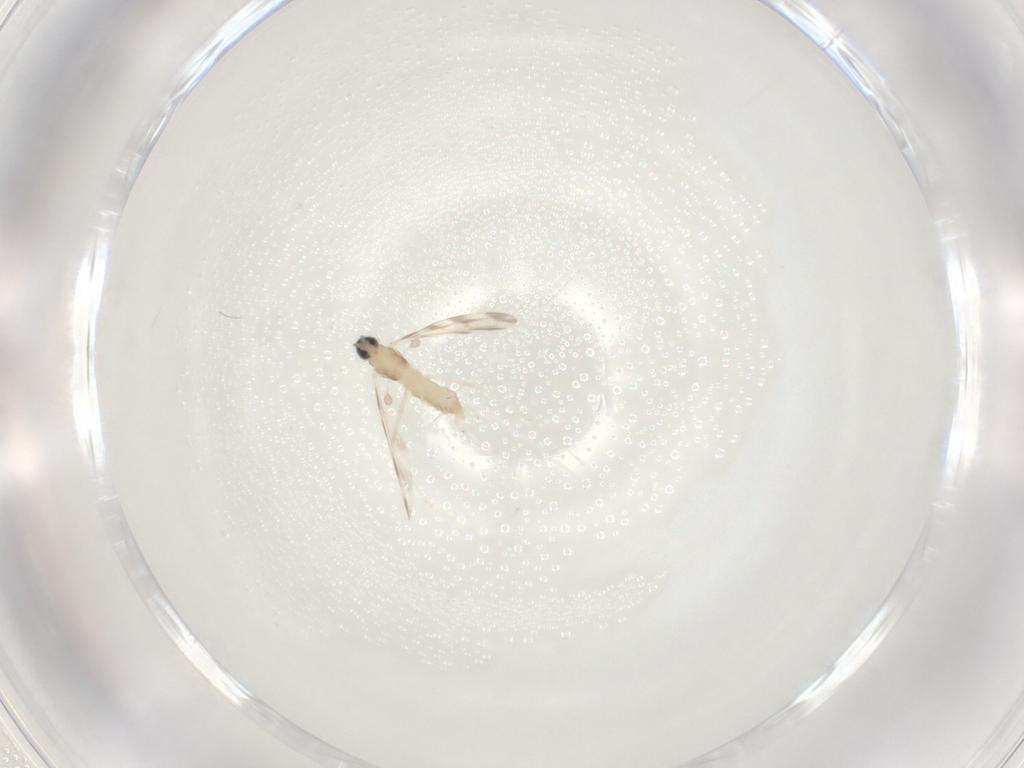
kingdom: Animalia
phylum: Arthropoda
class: Insecta
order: Diptera
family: Cecidomyiidae
